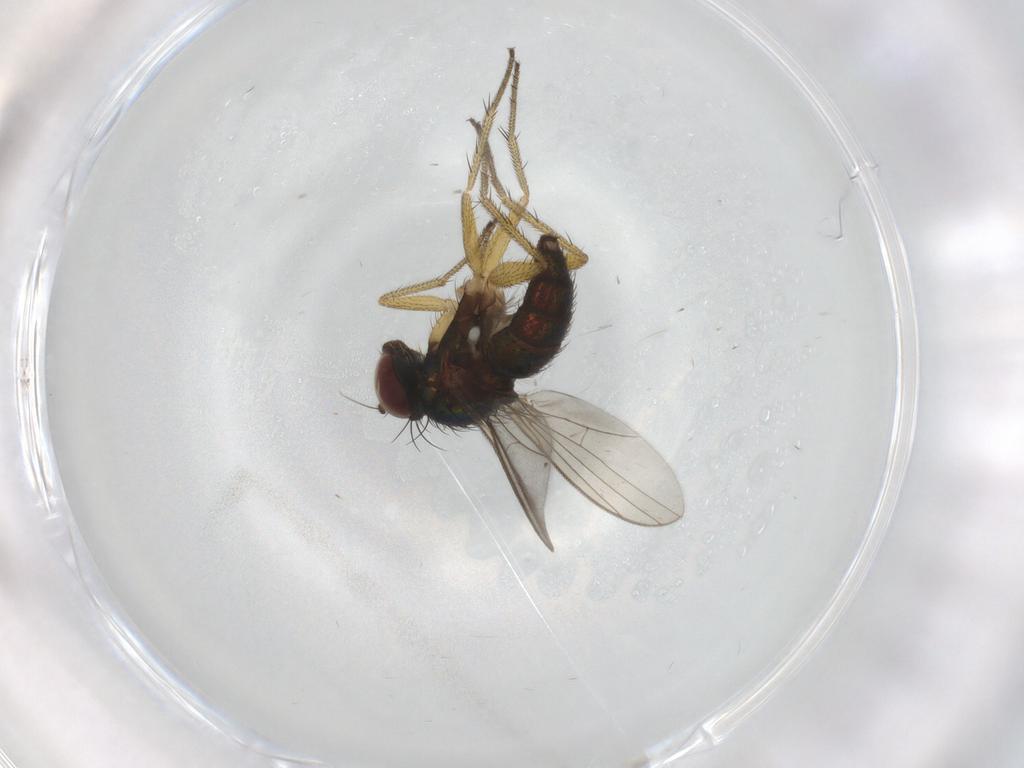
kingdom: Animalia
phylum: Arthropoda
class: Insecta
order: Diptera
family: Dolichopodidae
